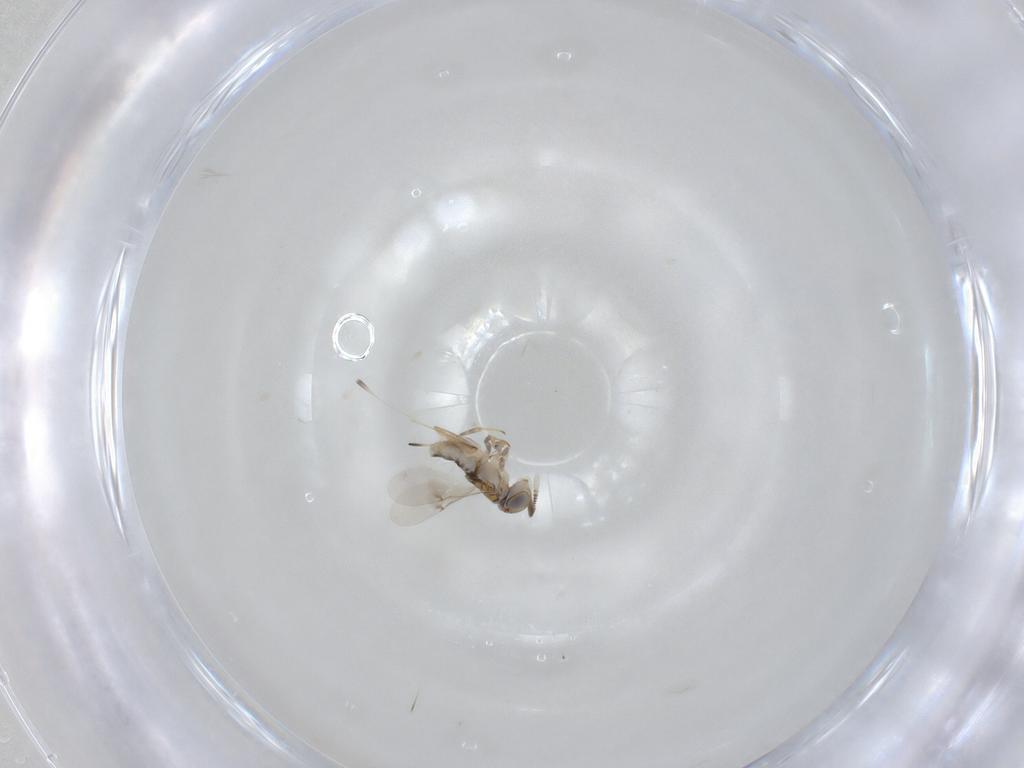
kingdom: Animalia
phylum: Arthropoda
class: Insecta
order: Hymenoptera
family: Encyrtidae
